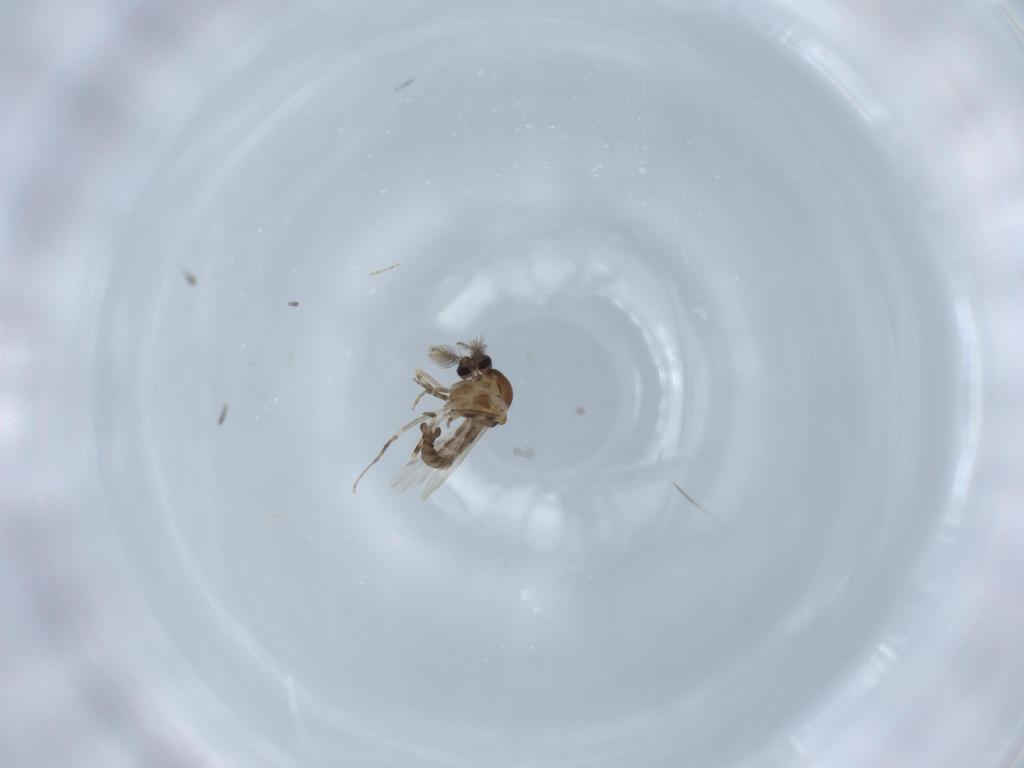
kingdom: Animalia
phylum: Arthropoda
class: Insecta
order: Diptera
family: Ceratopogonidae
